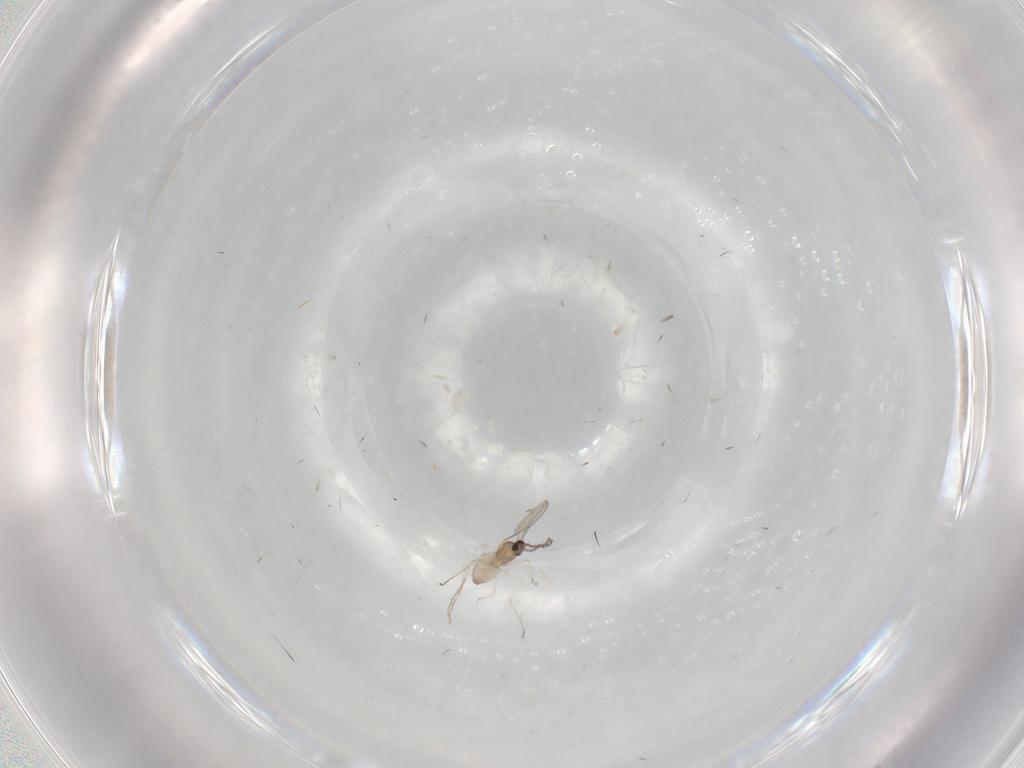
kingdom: Animalia
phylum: Arthropoda
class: Insecta
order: Diptera
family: Cecidomyiidae
